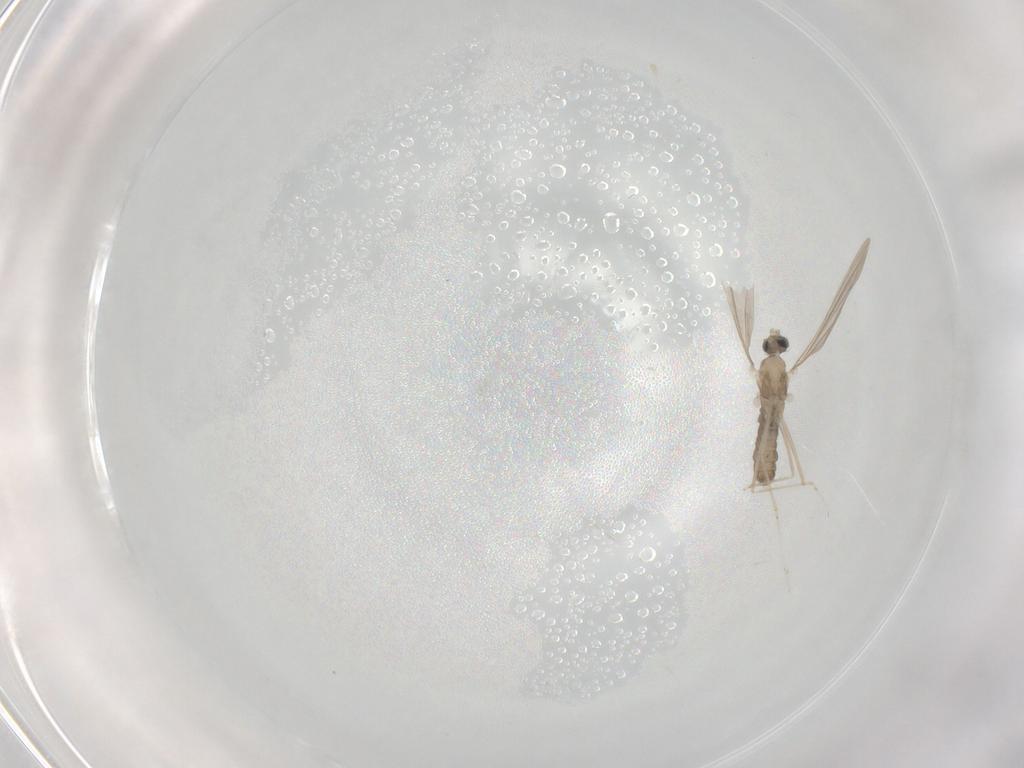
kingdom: Animalia
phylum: Arthropoda
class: Insecta
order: Diptera
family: Cecidomyiidae
